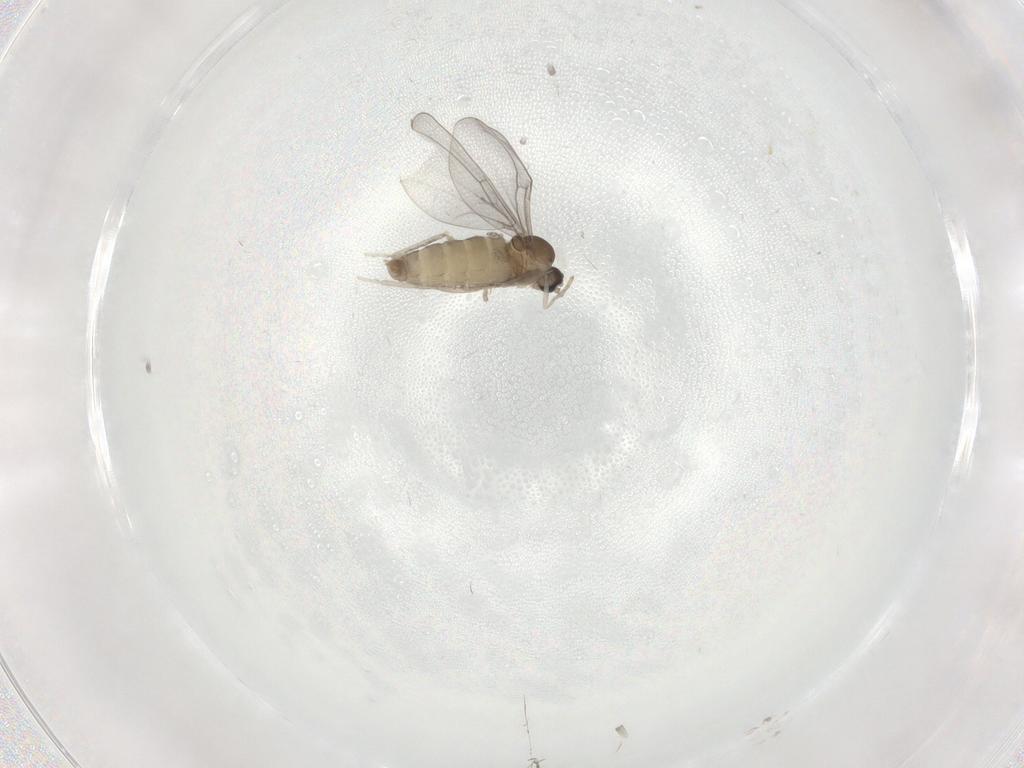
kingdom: Animalia
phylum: Arthropoda
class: Insecta
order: Diptera
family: Cecidomyiidae
